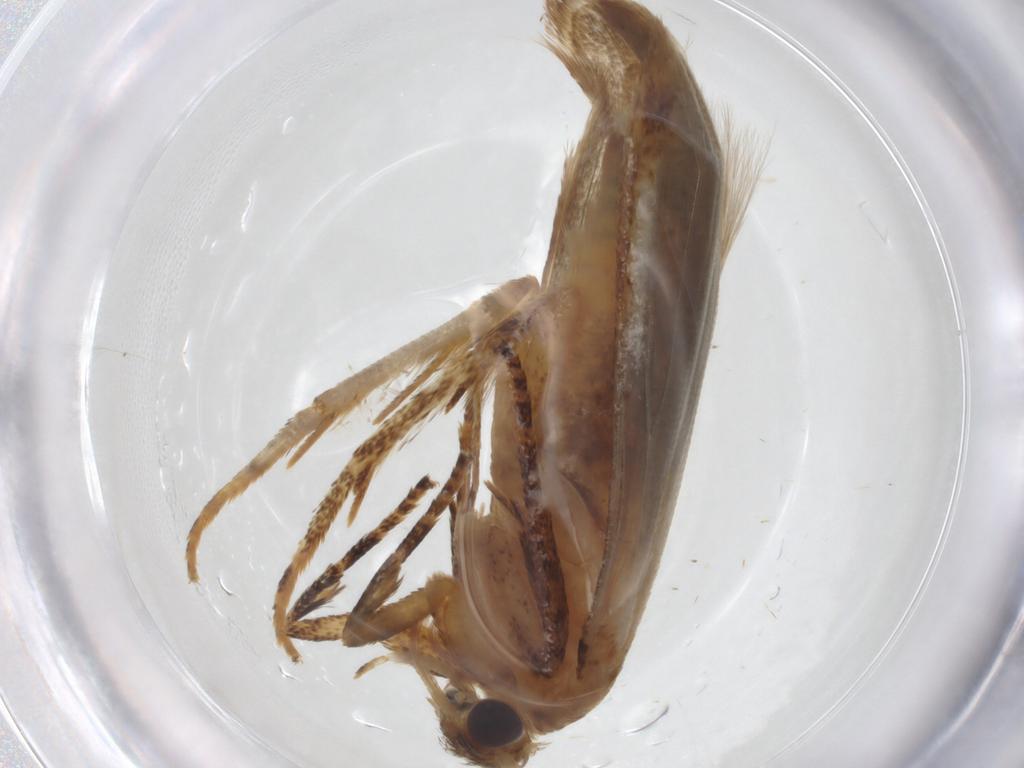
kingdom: Animalia
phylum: Arthropoda
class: Insecta
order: Lepidoptera
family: Blastobasidae
